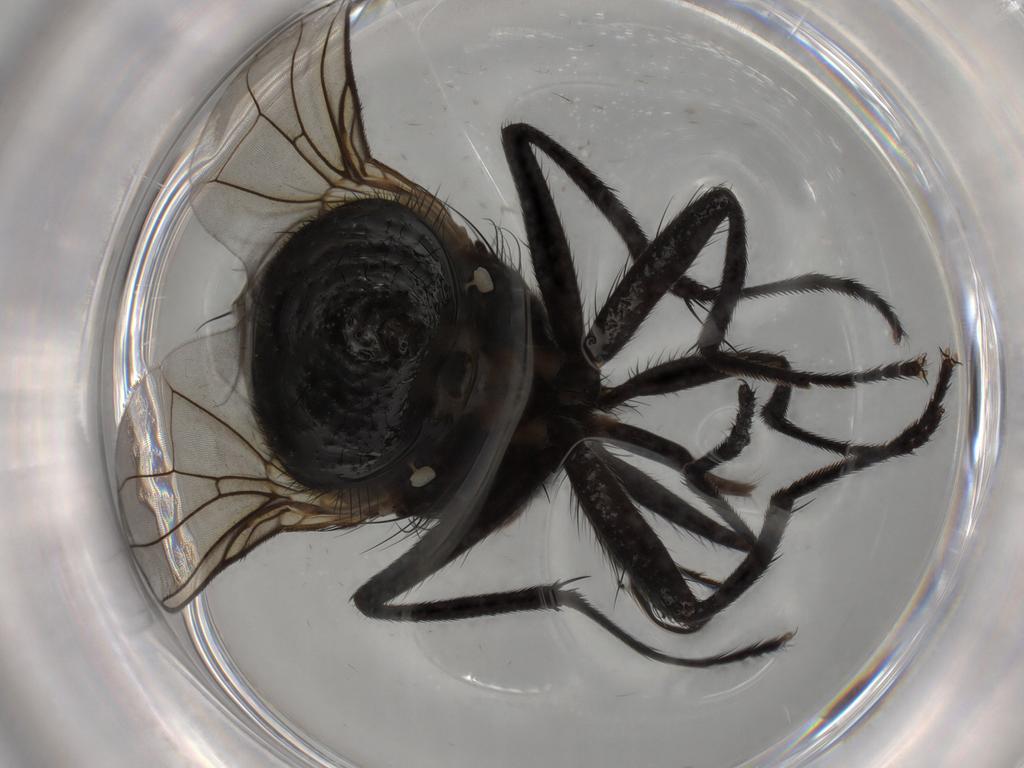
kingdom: Animalia
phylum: Arthropoda
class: Insecta
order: Diptera
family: Muscidae
